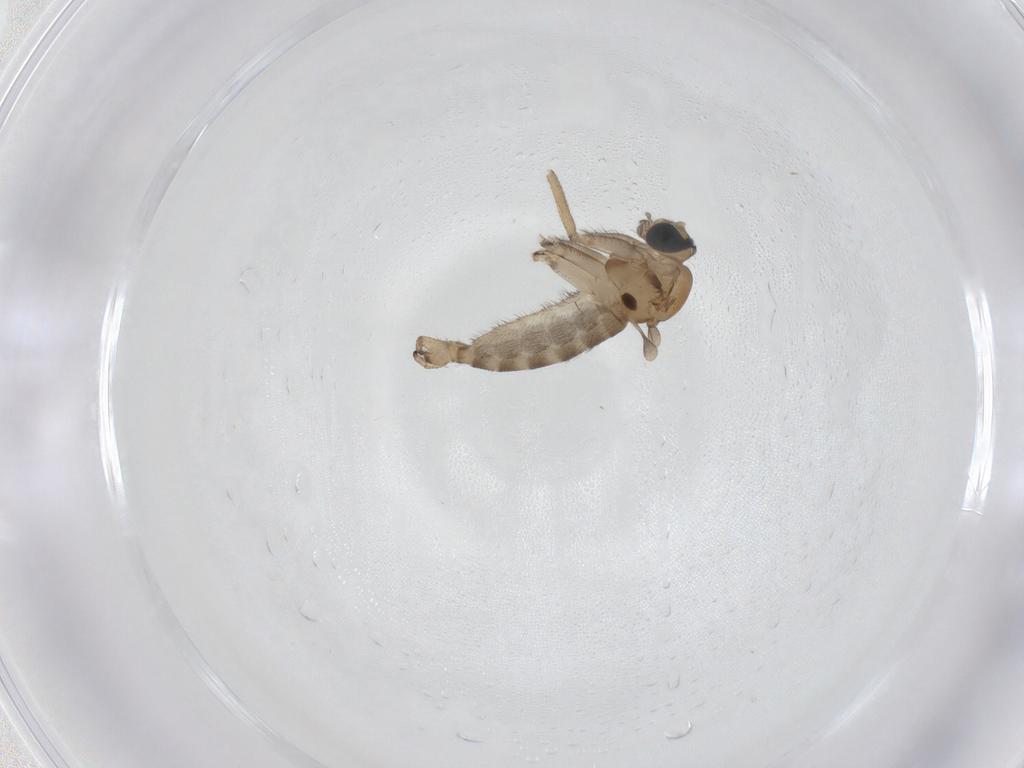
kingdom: Animalia
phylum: Arthropoda
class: Insecta
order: Diptera
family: Sciaridae
